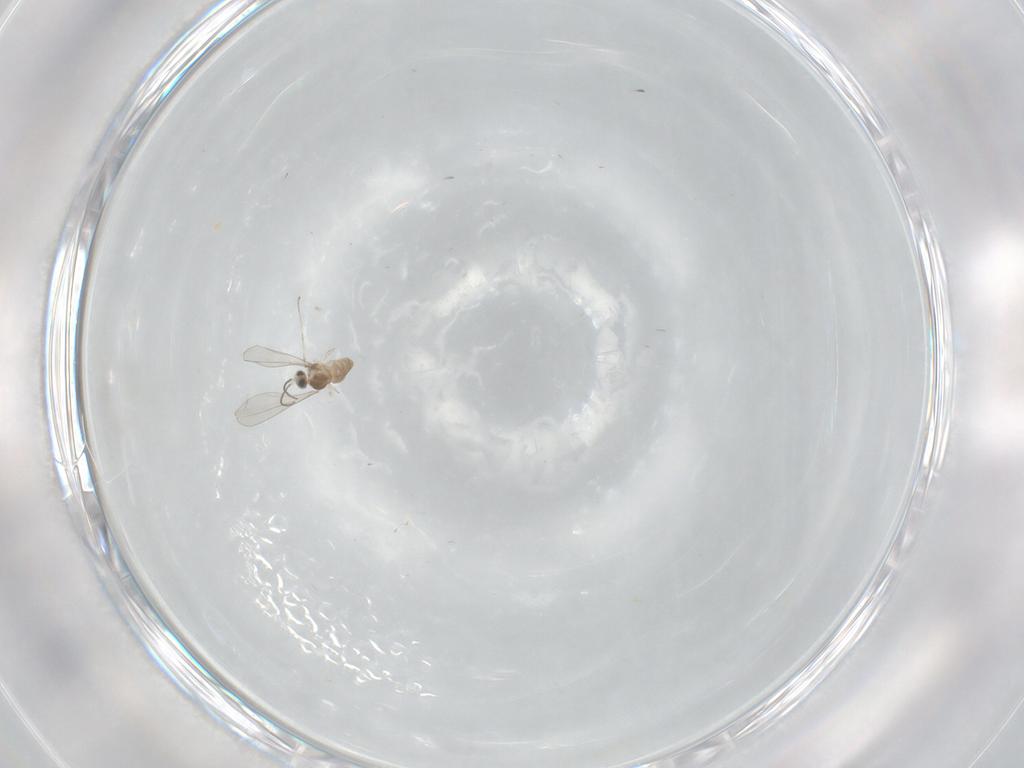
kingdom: Animalia
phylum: Arthropoda
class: Insecta
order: Diptera
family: Cecidomyiidae
